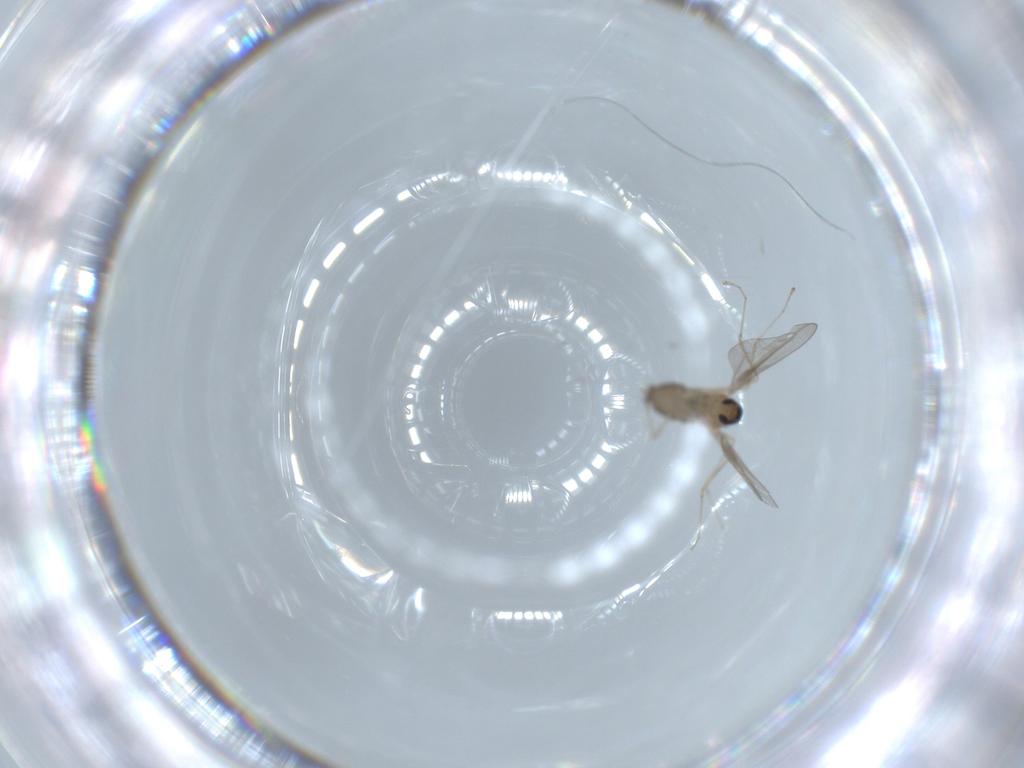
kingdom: Animalia
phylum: Arthropoda
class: Insecta
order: Diptera
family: Cecidomyiidae
